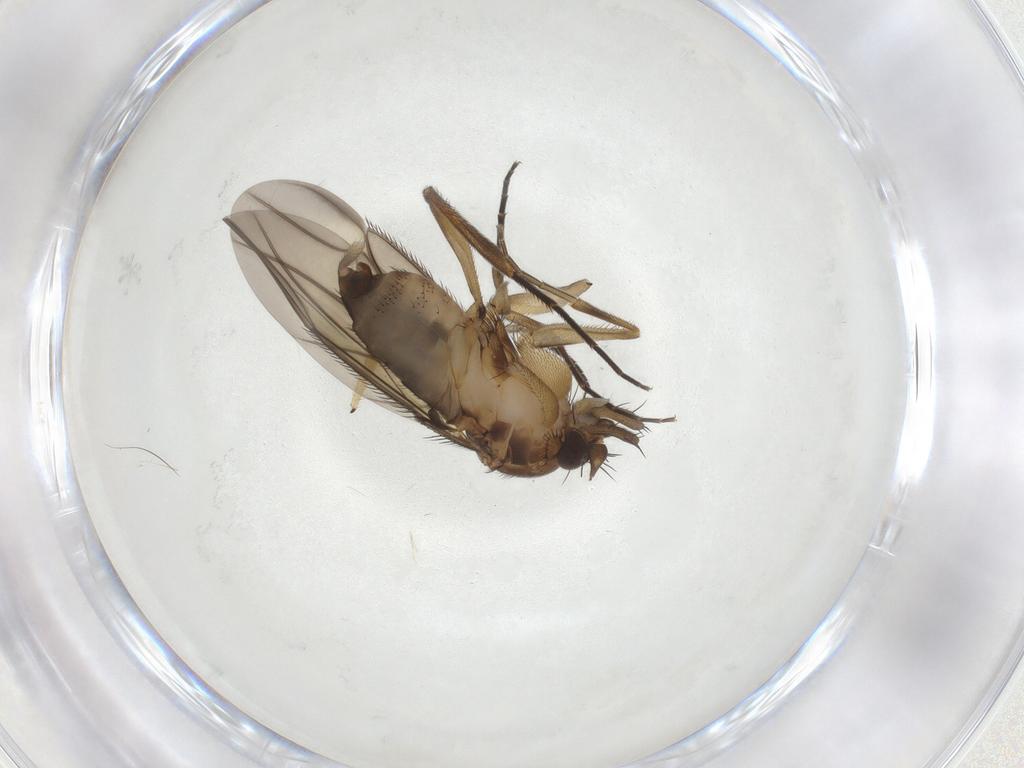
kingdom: Animalia
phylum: Arthropoda
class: Insecta
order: Diptera
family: Phoridae
